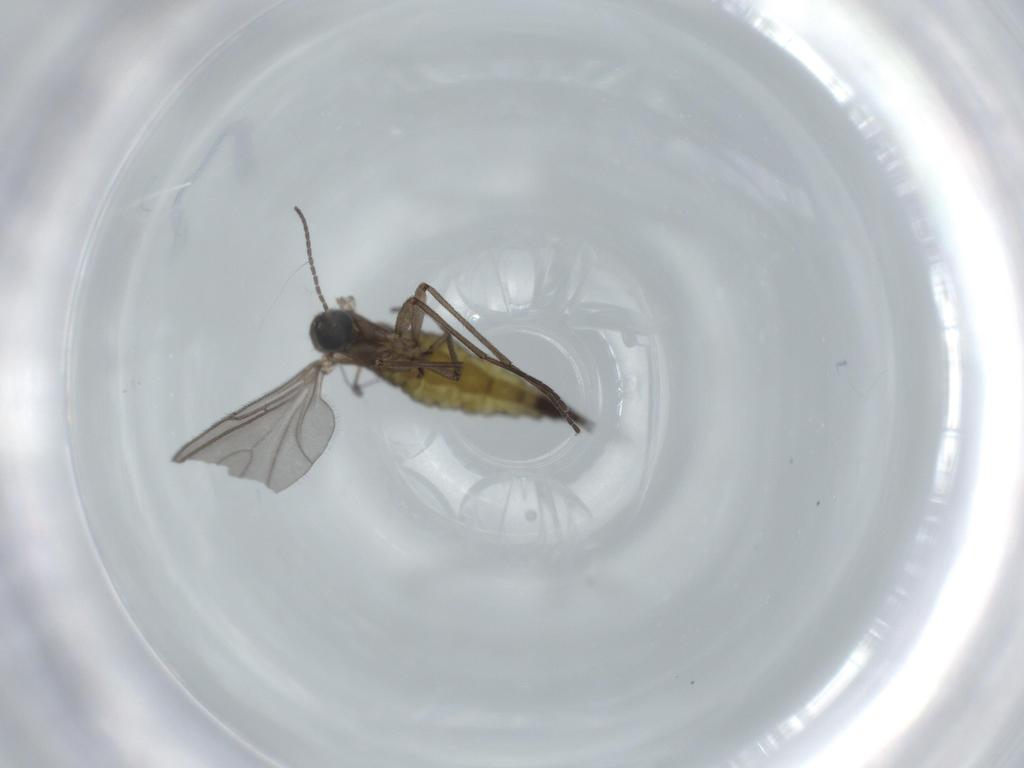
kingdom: Animalia
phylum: Arthropoda
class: Insecta
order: Diptera
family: Sciaridae
